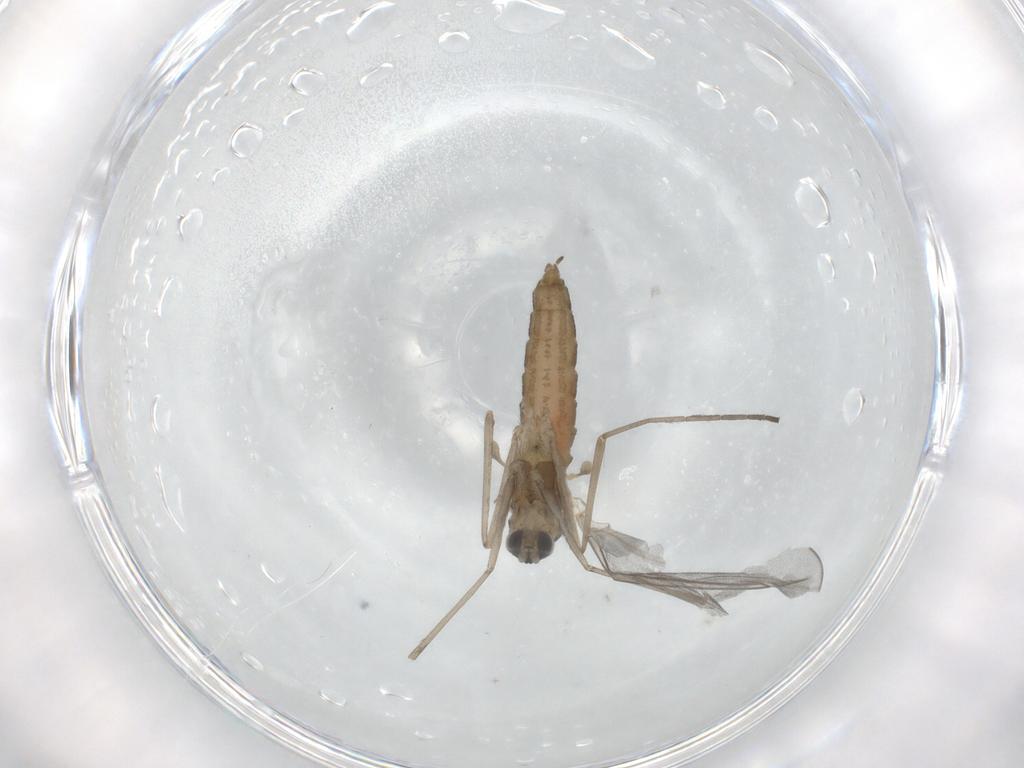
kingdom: Animalia
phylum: Arthropoda
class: Insecta
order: Diptera
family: Cecidomyiidae
